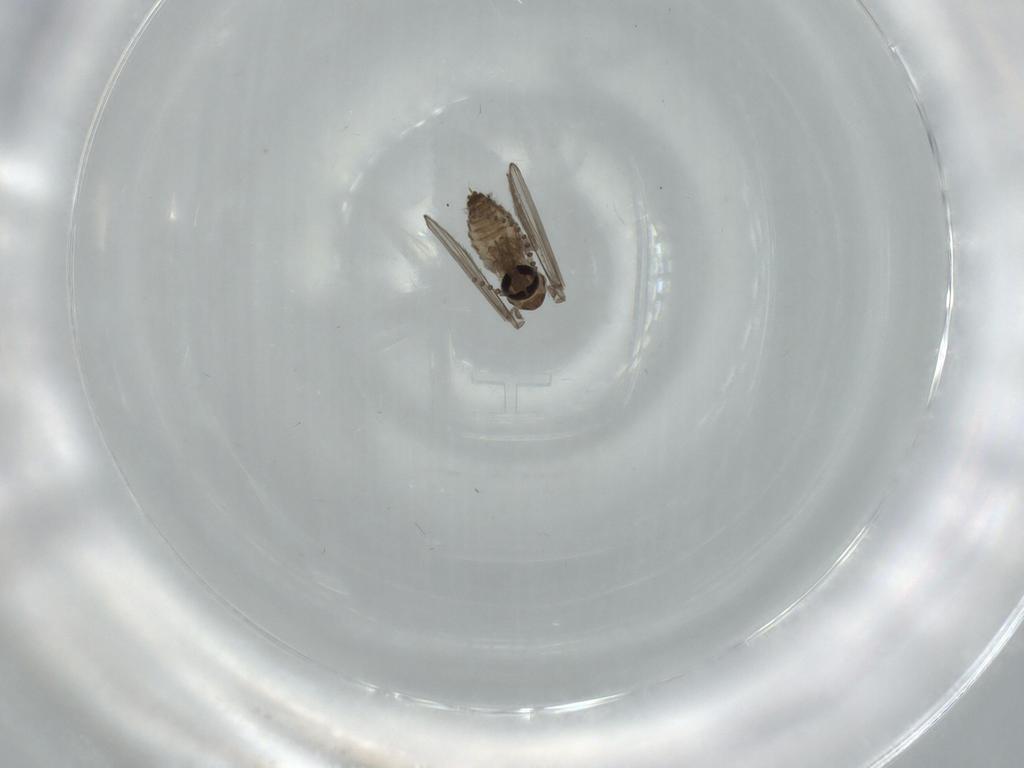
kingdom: Animalia
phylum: Arthropoda
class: Insecta
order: Diptera
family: Psychodidae
